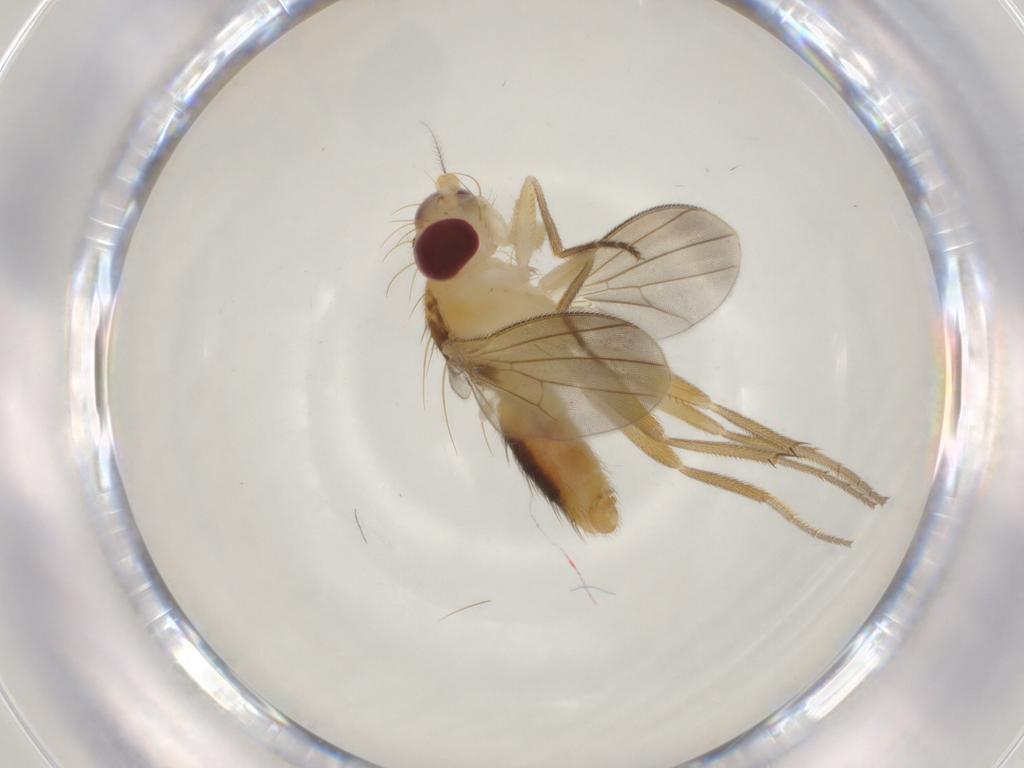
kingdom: Animalia
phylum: Arthropoda
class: Insecta
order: Diptera
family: Agromyzidae
